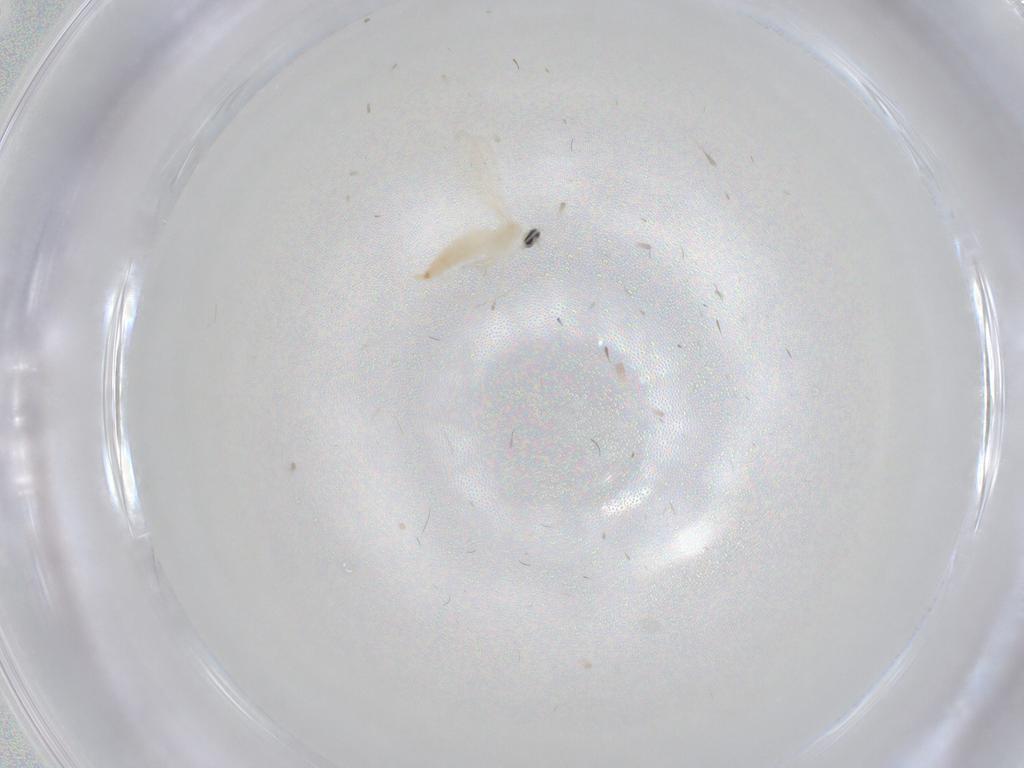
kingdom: Animalia
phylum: Arthropoda
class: Insecta
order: Diptera
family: Cecidomyiidae
